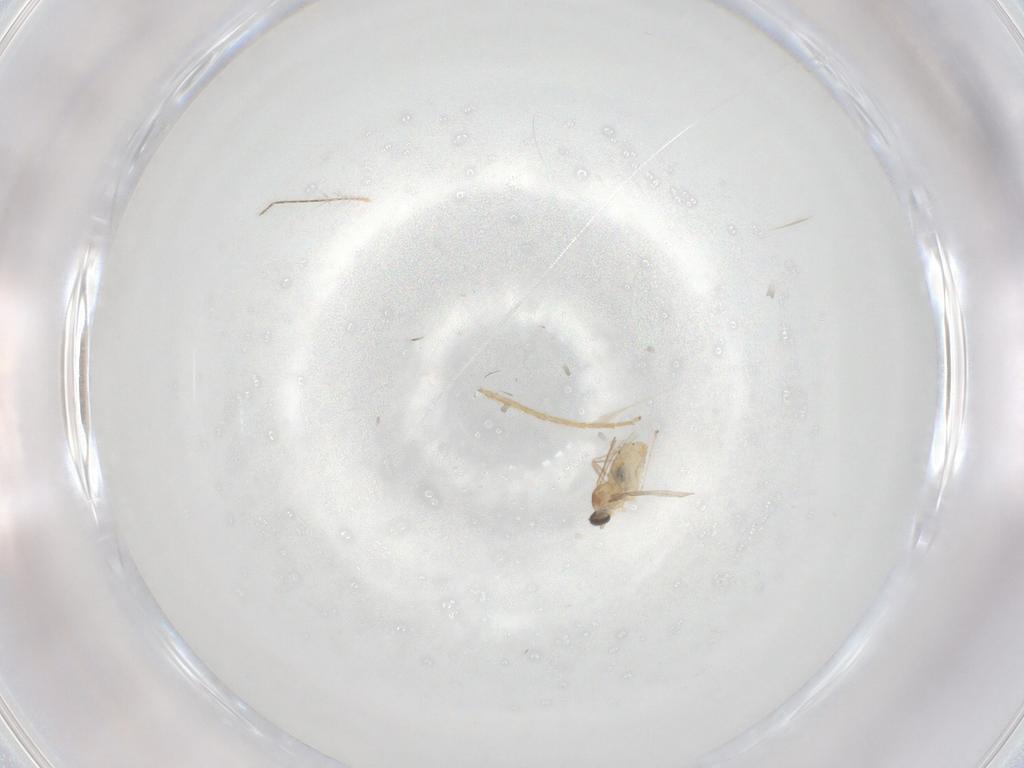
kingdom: Animalia
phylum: Arthropoda
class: Insecta
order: Diptera
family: Cecidomyiidae
